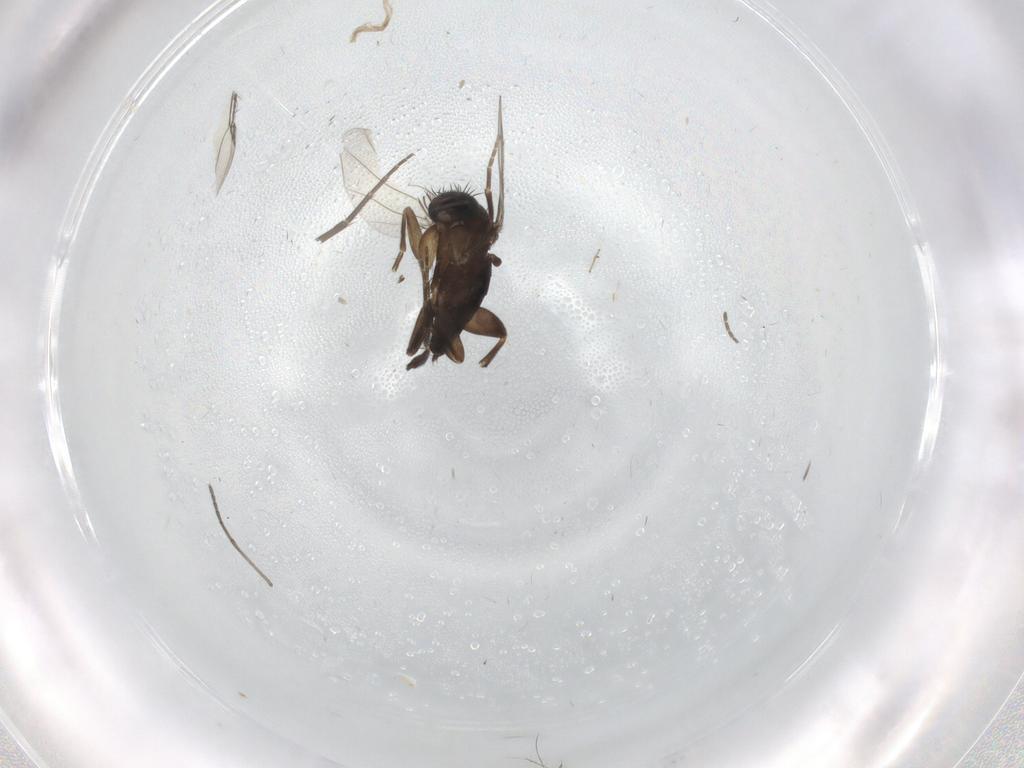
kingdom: Animalia
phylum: Arthropoda
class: Insecta
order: Diptera
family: Phoridae
